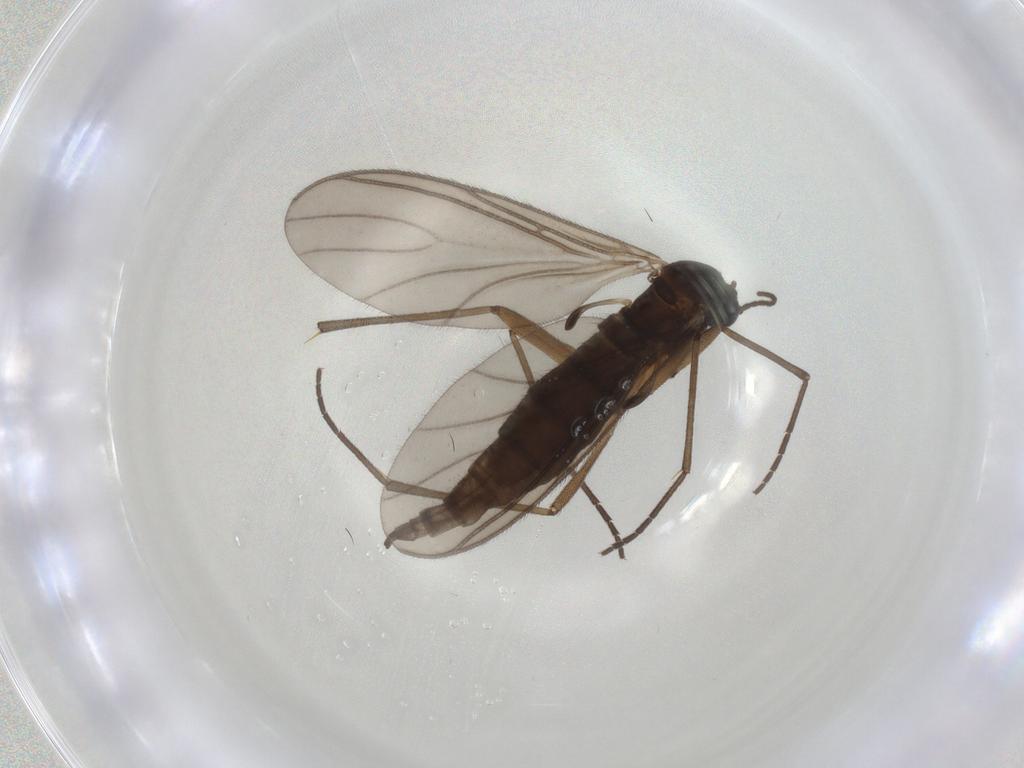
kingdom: Animalia
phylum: Arthropoda
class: Insecta
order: Diptera
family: Sciaridae
